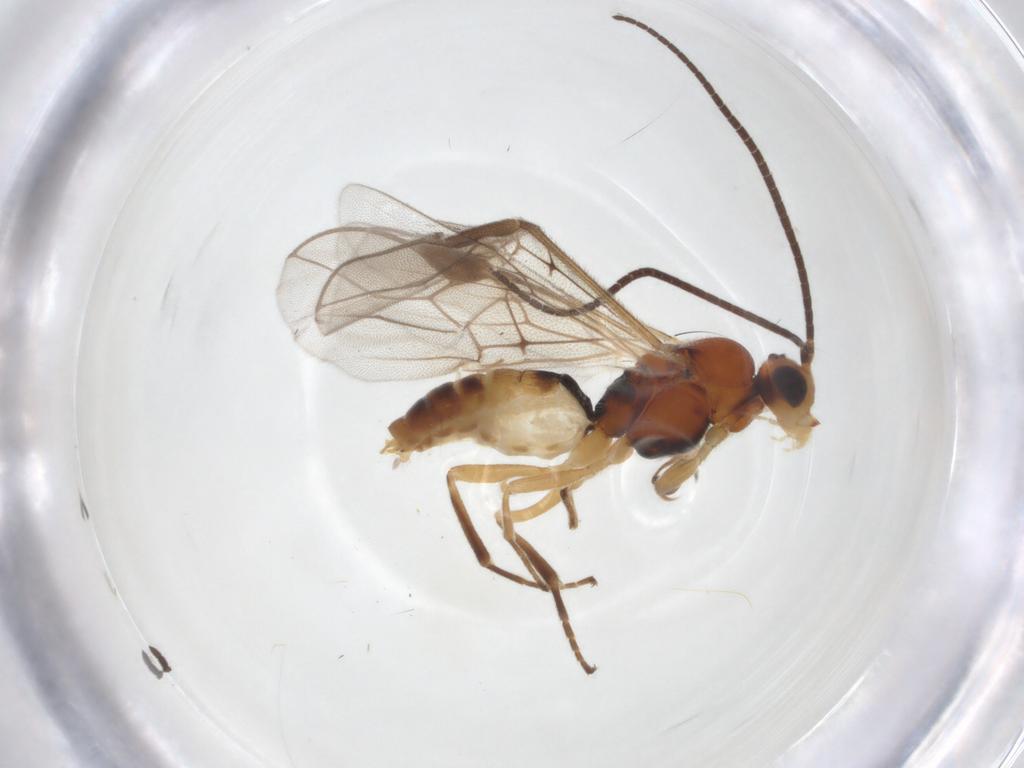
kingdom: Animalia
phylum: Arthropoda
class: Insecta
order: Hymenoptera
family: Braconidae
